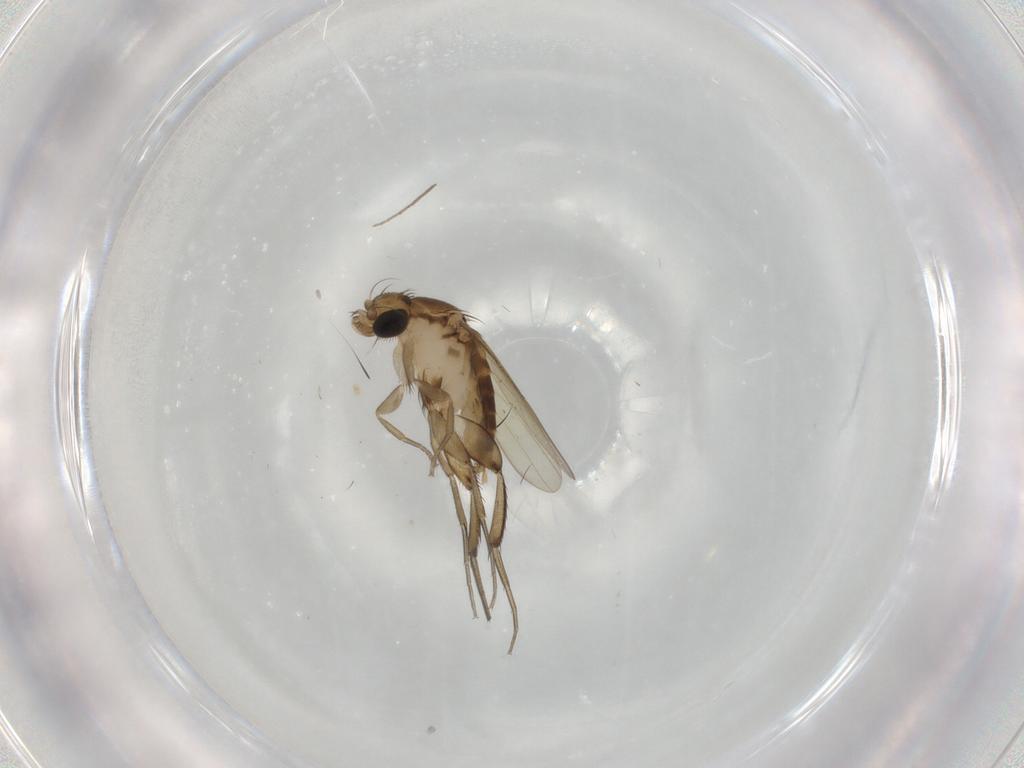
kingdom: Animalia
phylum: Arthropoda
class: Insecta
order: Diptera
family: Phoridae
